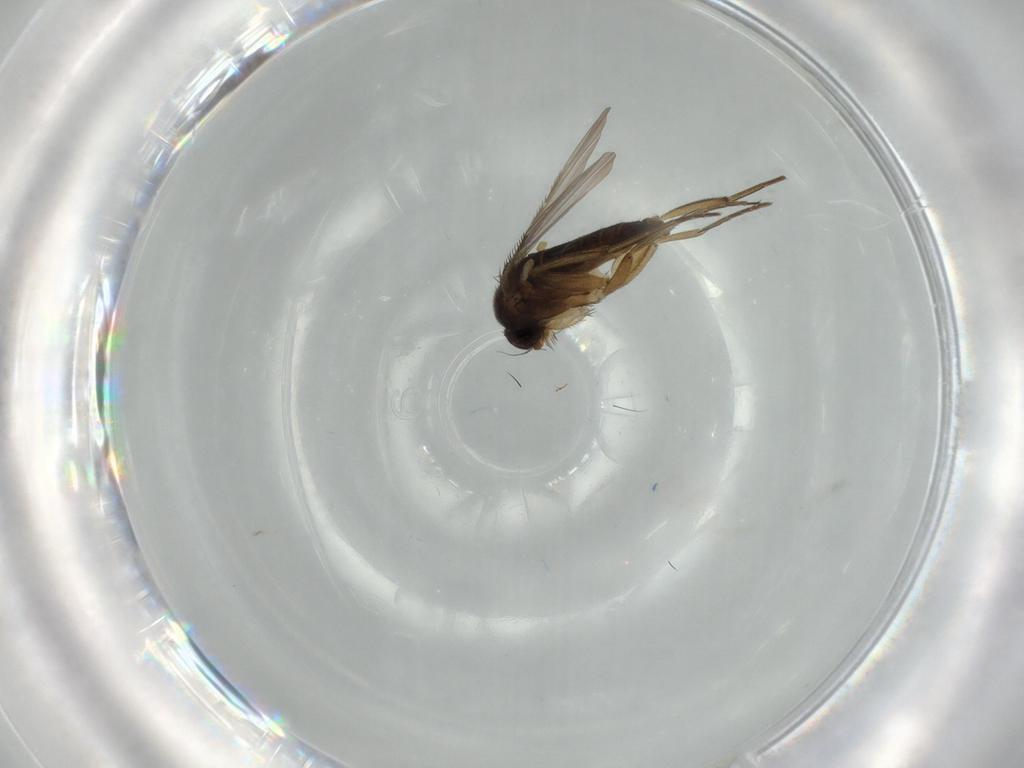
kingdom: Animalia
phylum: Arthropoda
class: Insecta
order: Diptera
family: Phoridae
